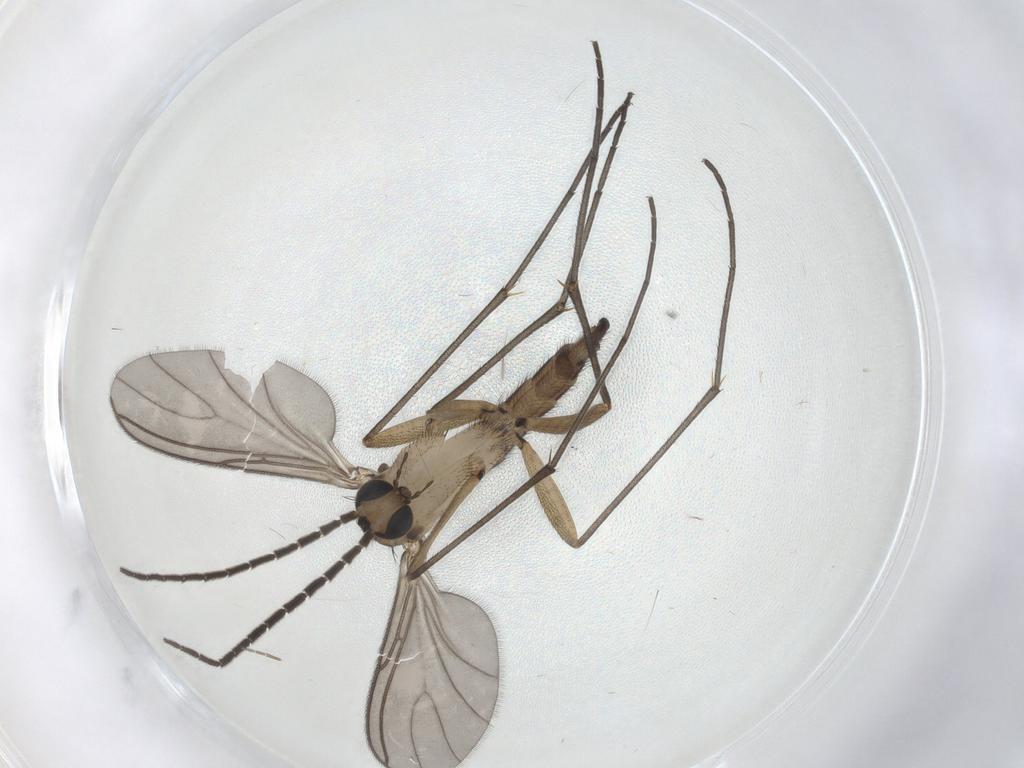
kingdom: Animalia
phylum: Arthropoda
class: Insecta
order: Diptera
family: Sciaridae
